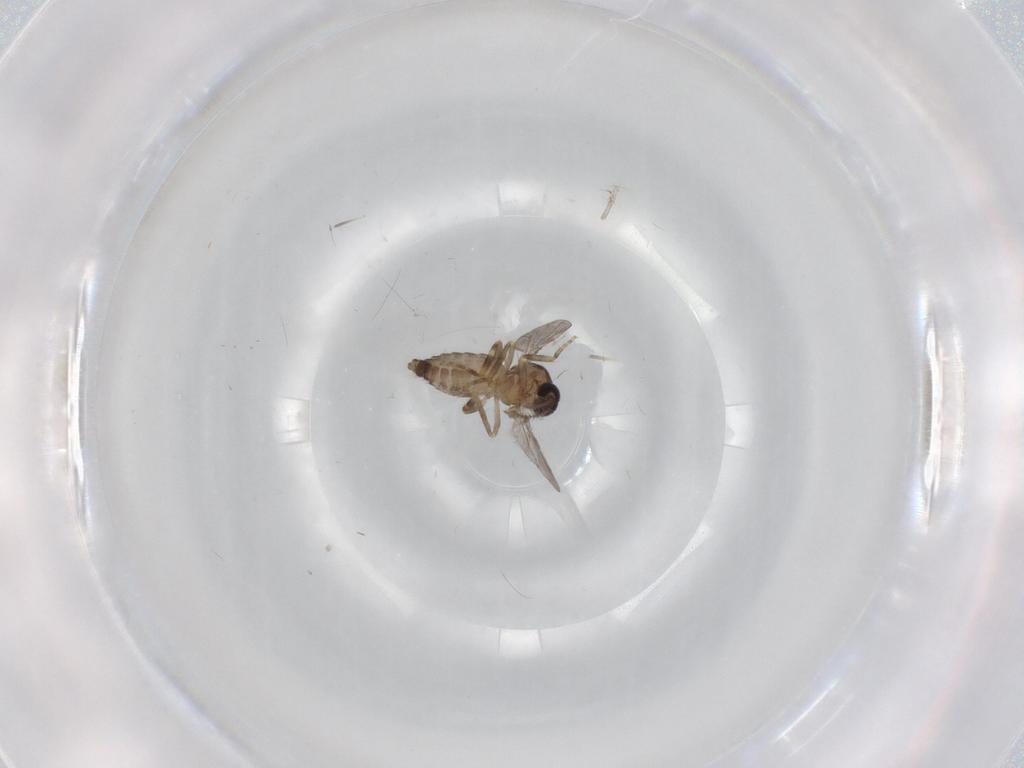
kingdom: Animalia
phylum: Arthropoda
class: Insecta
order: Diptera
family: Ceratopogonidae
